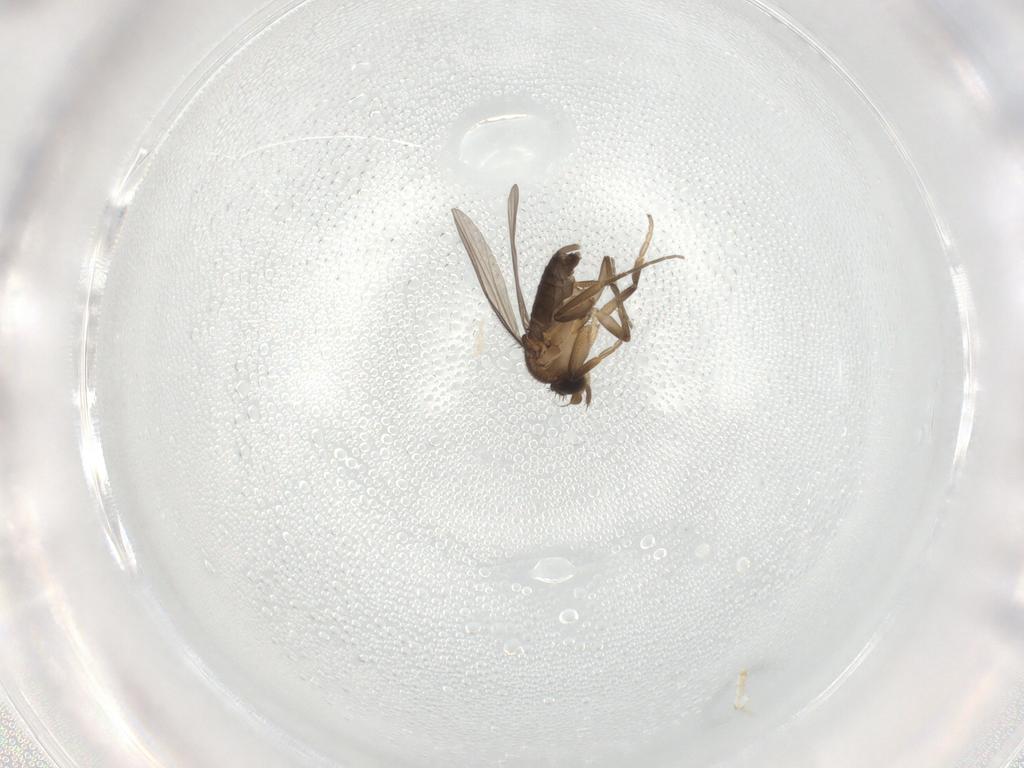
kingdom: Animalia
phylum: Arthropoda
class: Insecta
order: Diptera
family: Phoridae
